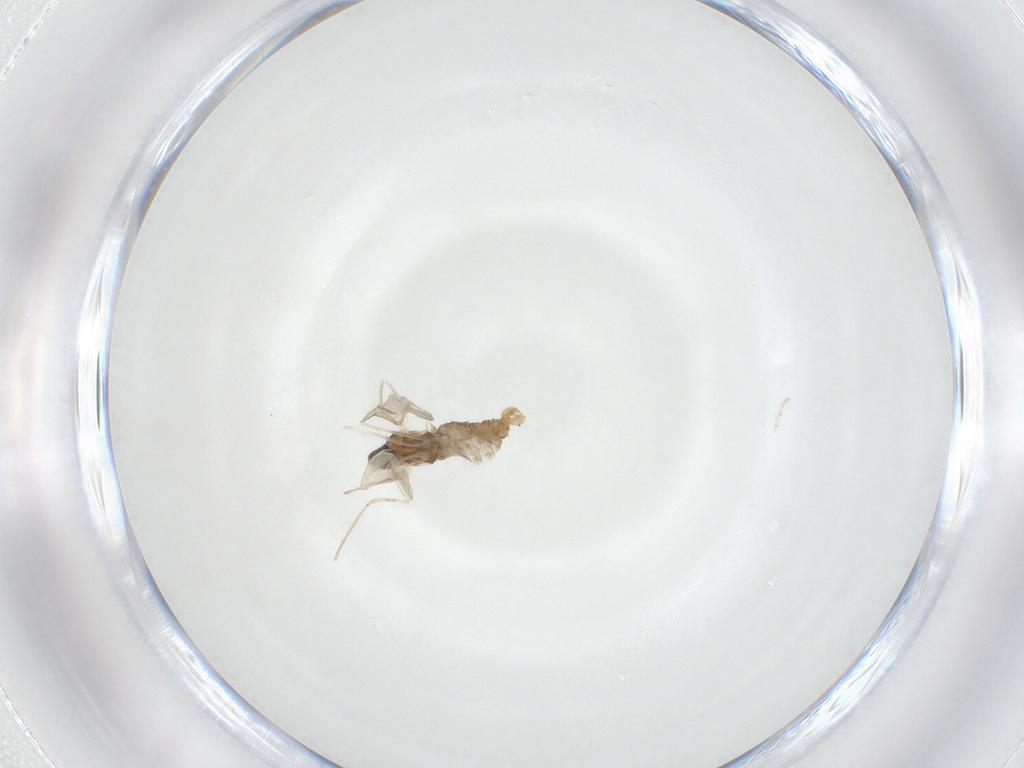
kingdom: Animalia
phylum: Arthropoda
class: Insecta
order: Diptera
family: Cecidomyiidae
